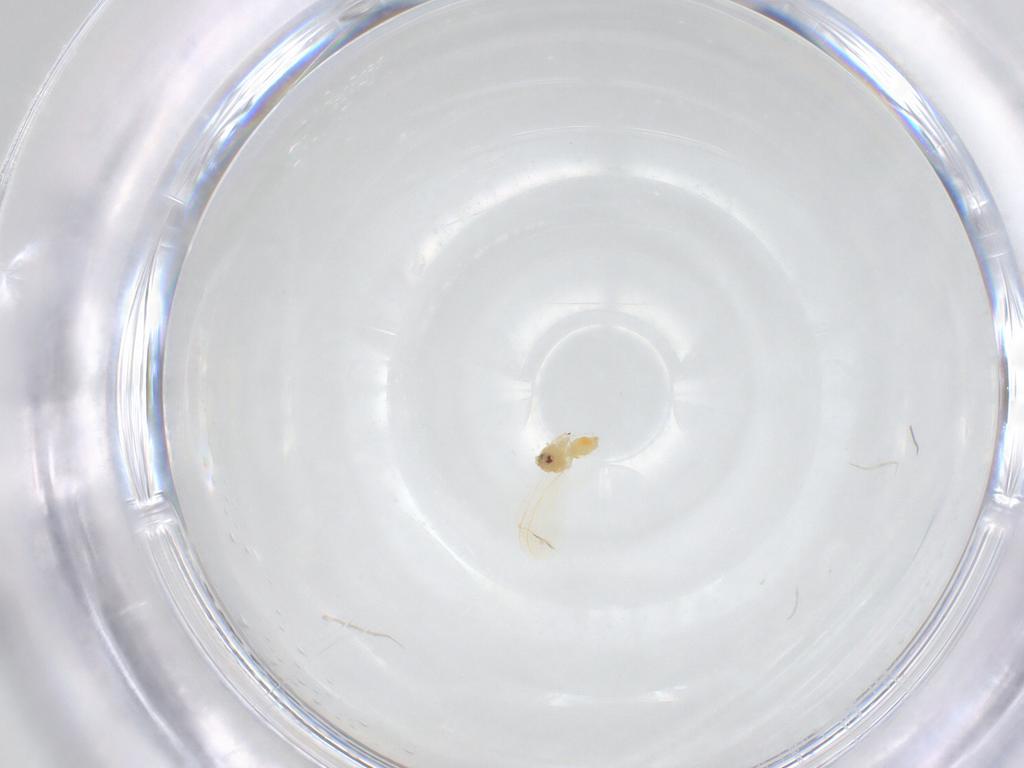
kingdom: Animalia
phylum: Arthropoda
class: Insecta
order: Hemiptera
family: Aleyrodidae
